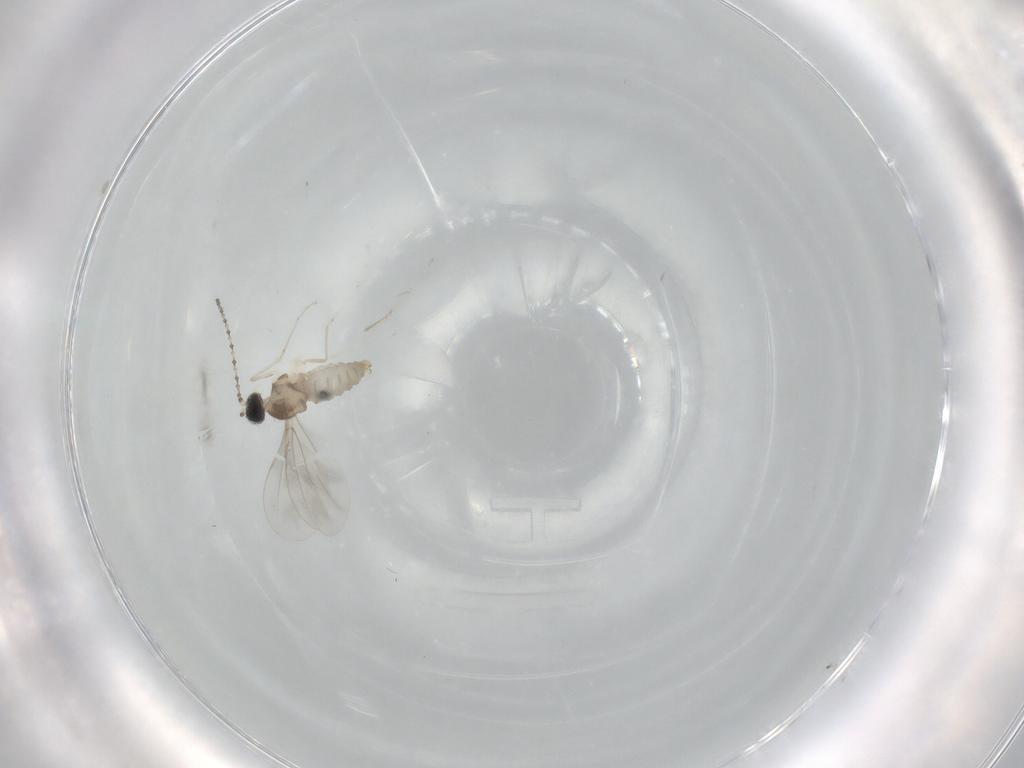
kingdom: Animalia
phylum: Arthropoda
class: Insecta
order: Diptera
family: Cecidomyiidae
